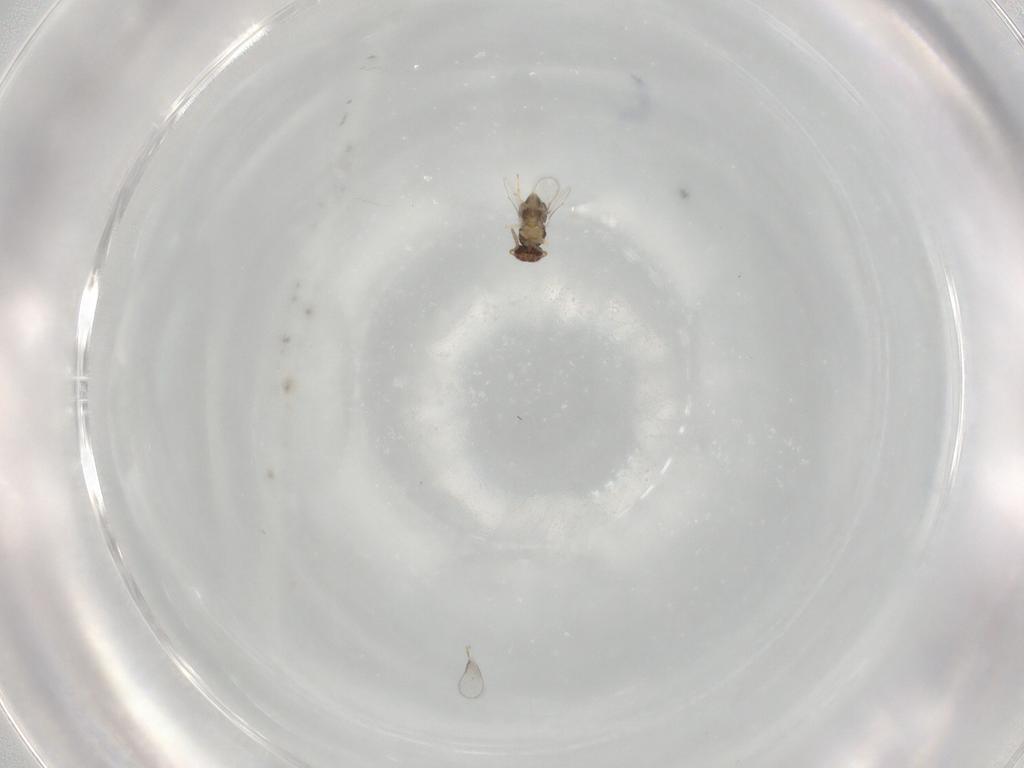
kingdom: Animalia
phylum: Arthropoda
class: Insecta
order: Hymenoptera
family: Aphelinidae
